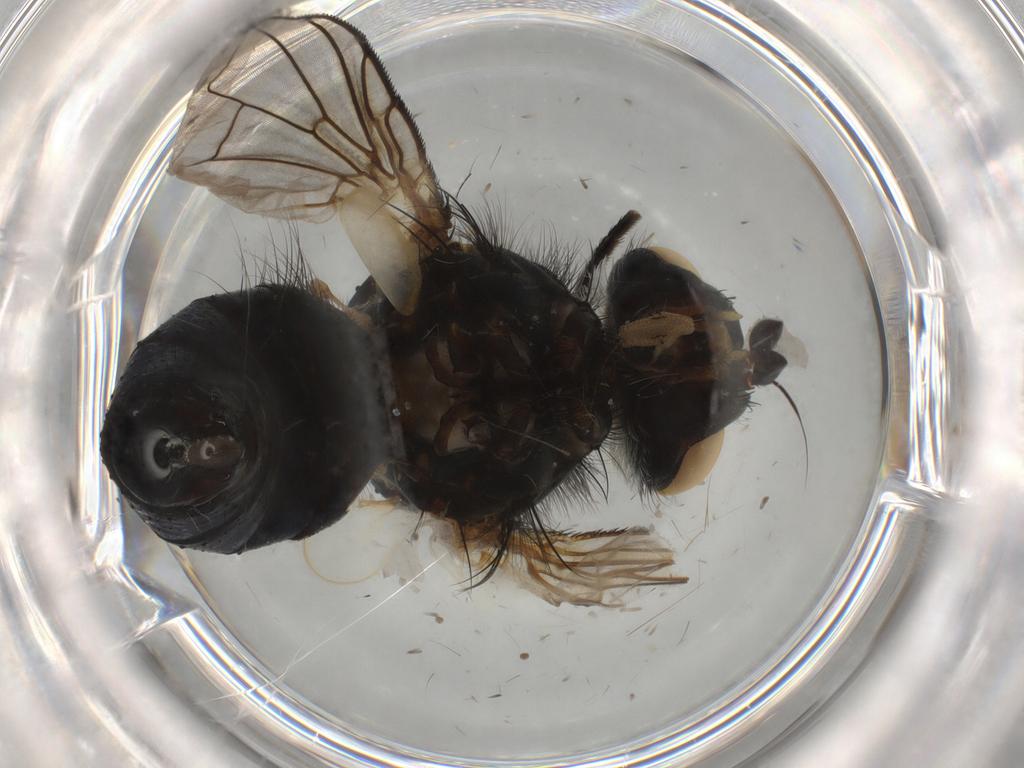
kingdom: Animalia
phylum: Arthropoda
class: Insecta
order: Diptera
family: Tachinidae
